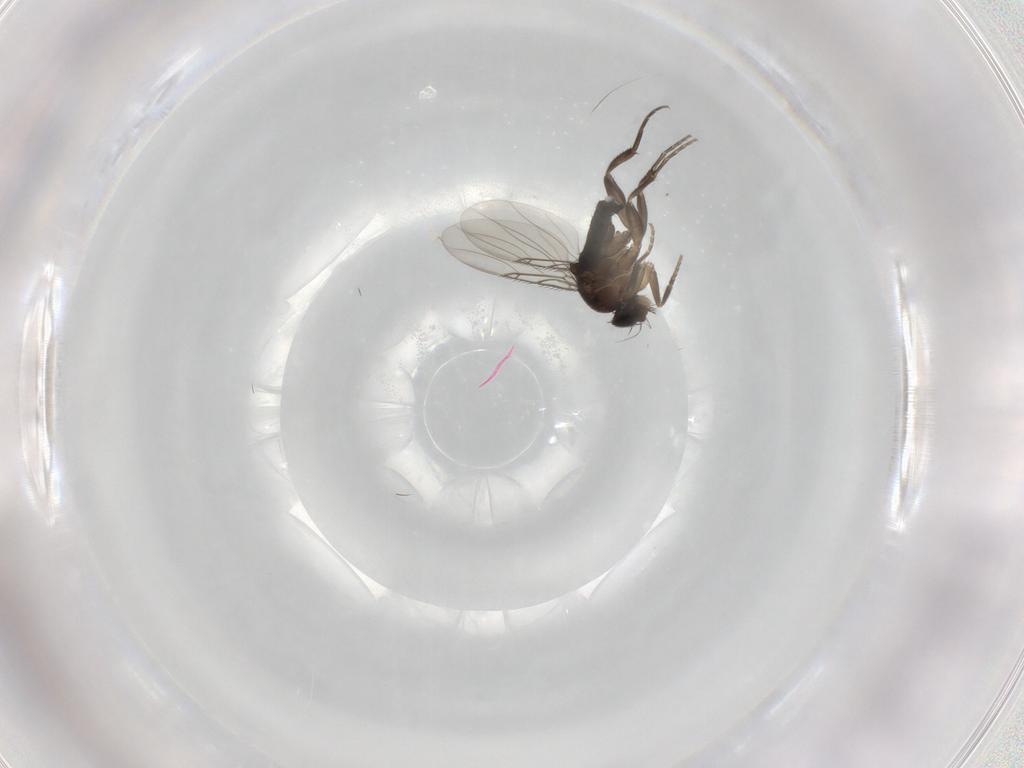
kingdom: Animalia
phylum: Arthropoda
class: Insecta
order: Diptera
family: Phoridae
